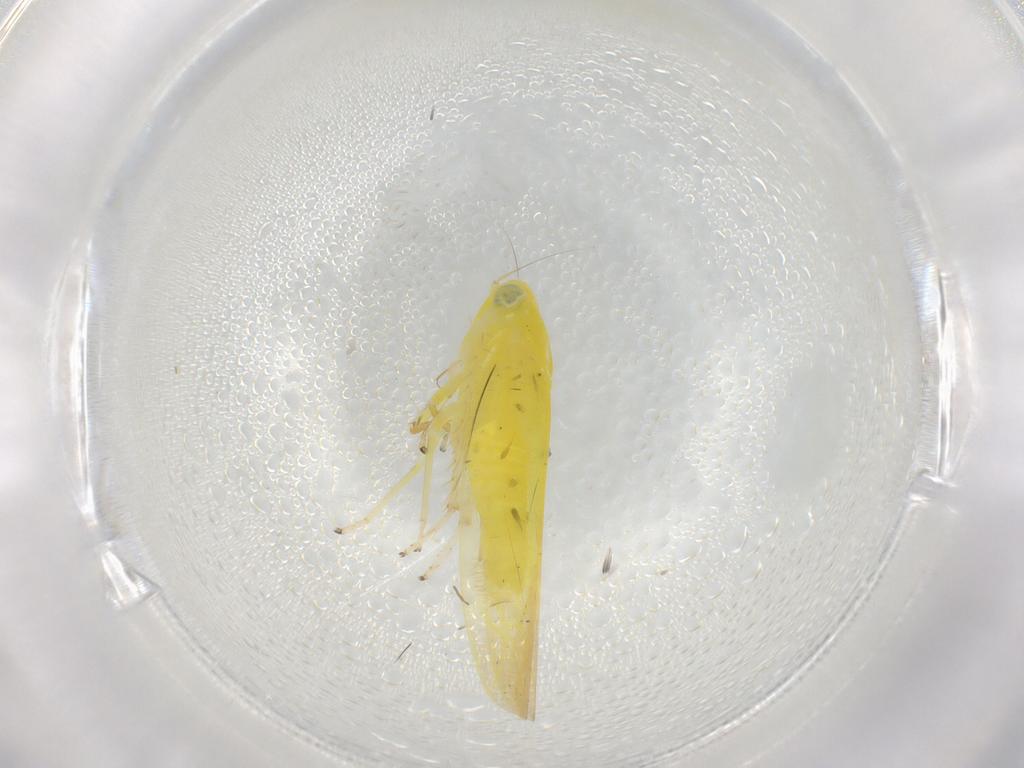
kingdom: Animalia
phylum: Arthropoda
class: Insecta
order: Hemiptera
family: Cicadellidae
